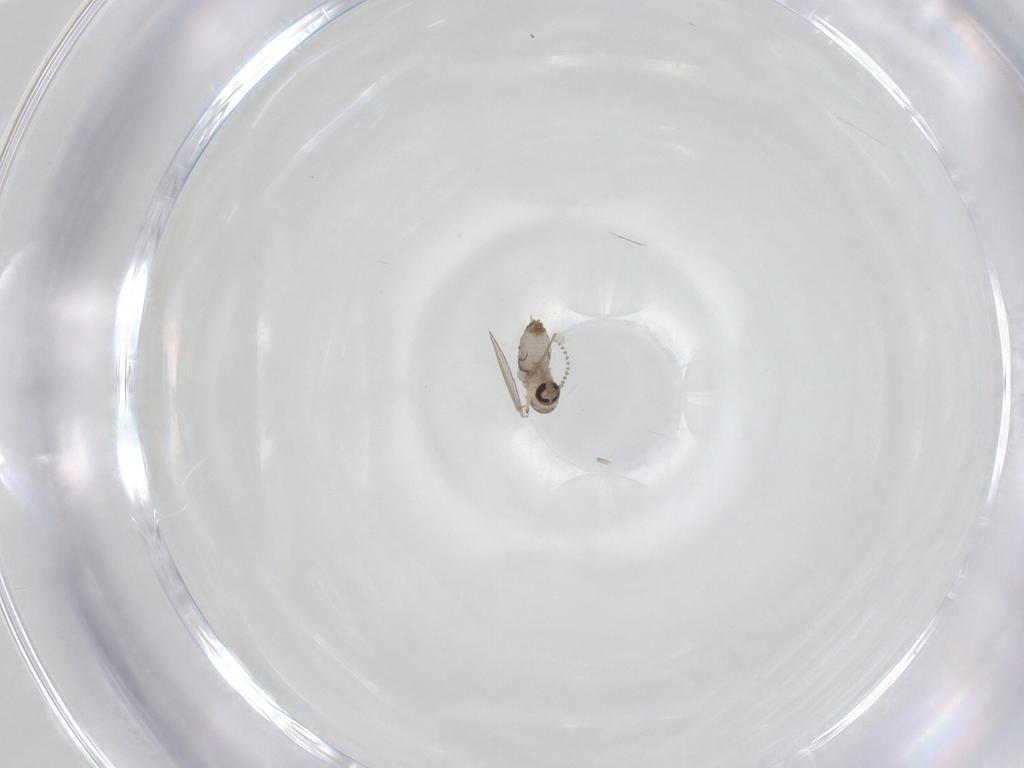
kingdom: Animalia
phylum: Arthropoda
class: Insecta
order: Diptera
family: Psychodidae
